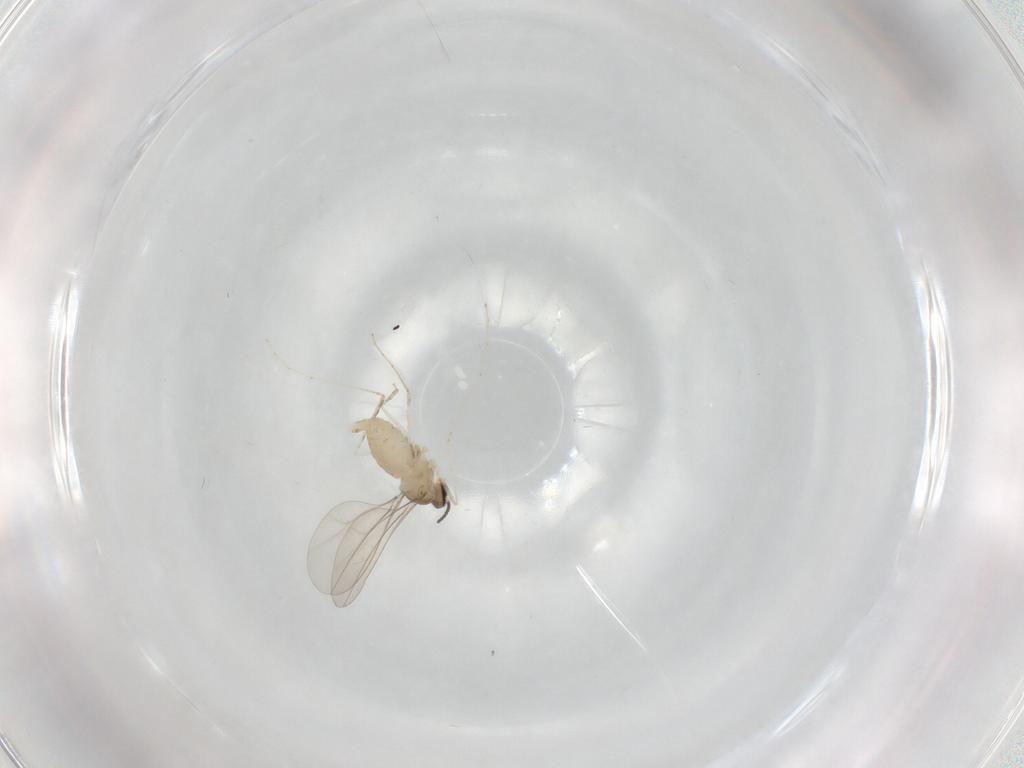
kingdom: Animalia
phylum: Arthropoda
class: Insecta
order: Diptera
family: Cecidomyiidae
